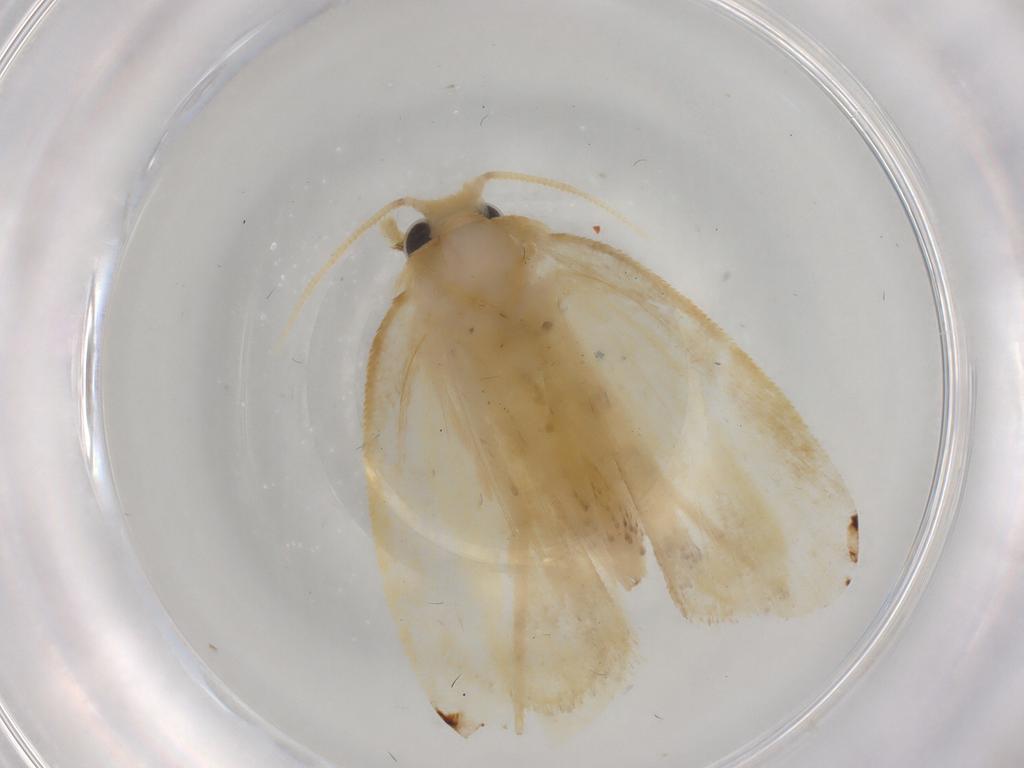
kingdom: Animalia
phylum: Arthropoda
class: Insecta
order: Lepidoptera
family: Psychidae
